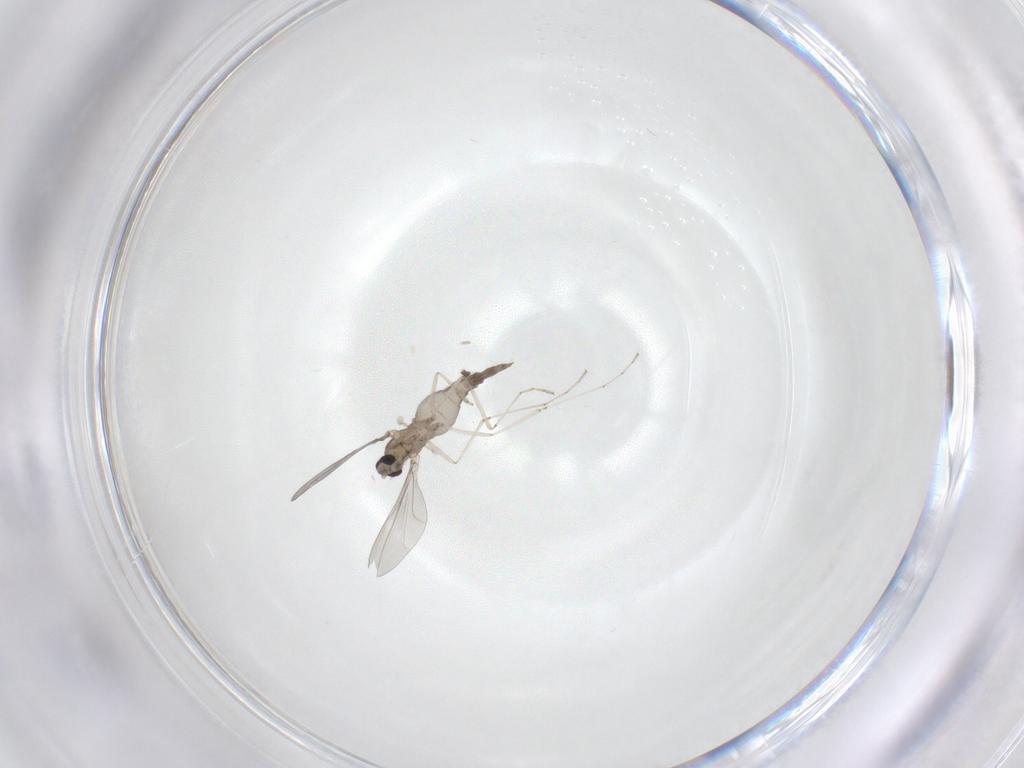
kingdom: Animalia
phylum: Arthropoda
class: Insecta
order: Diptera
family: Cecidomyiidae
